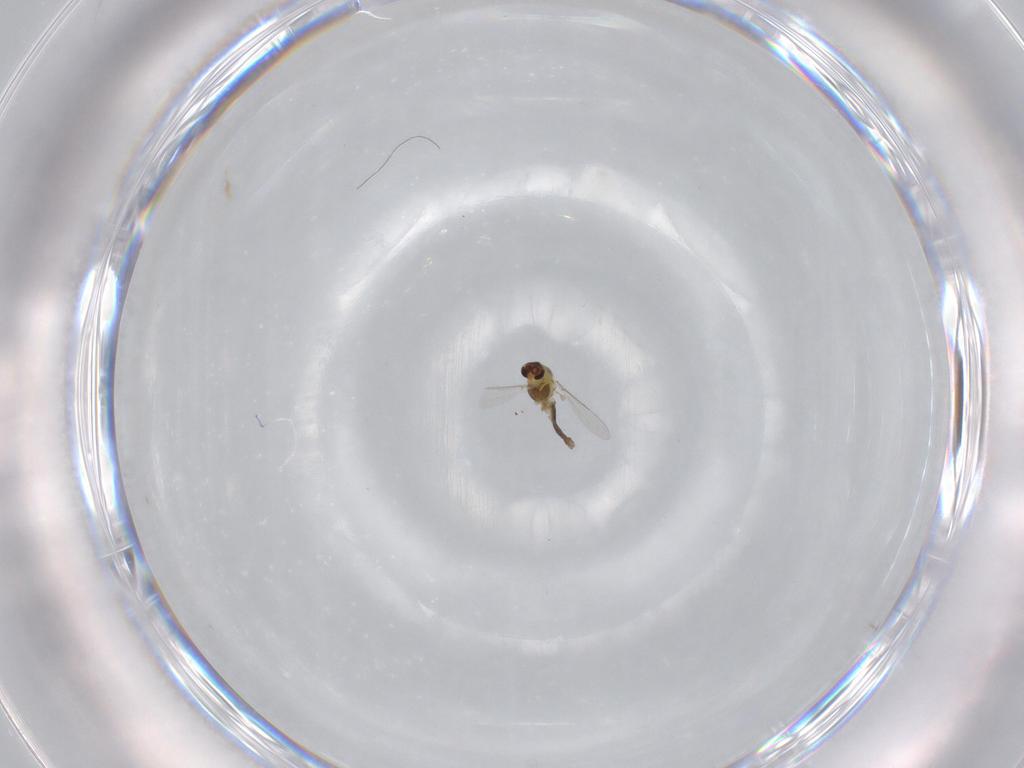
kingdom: Animalia
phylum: Arthropoda
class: Insecta
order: Diptera
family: Chironomidae
